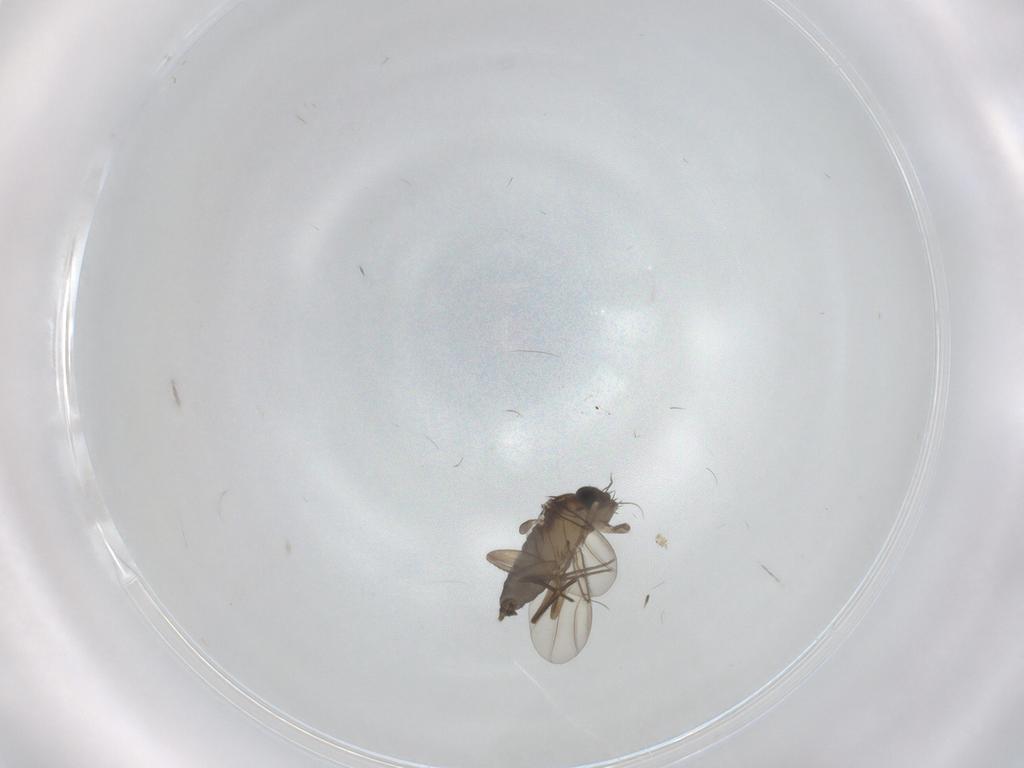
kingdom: Animalia
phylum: Arthropoda
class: Insecta
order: Diptera
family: Phoridae
